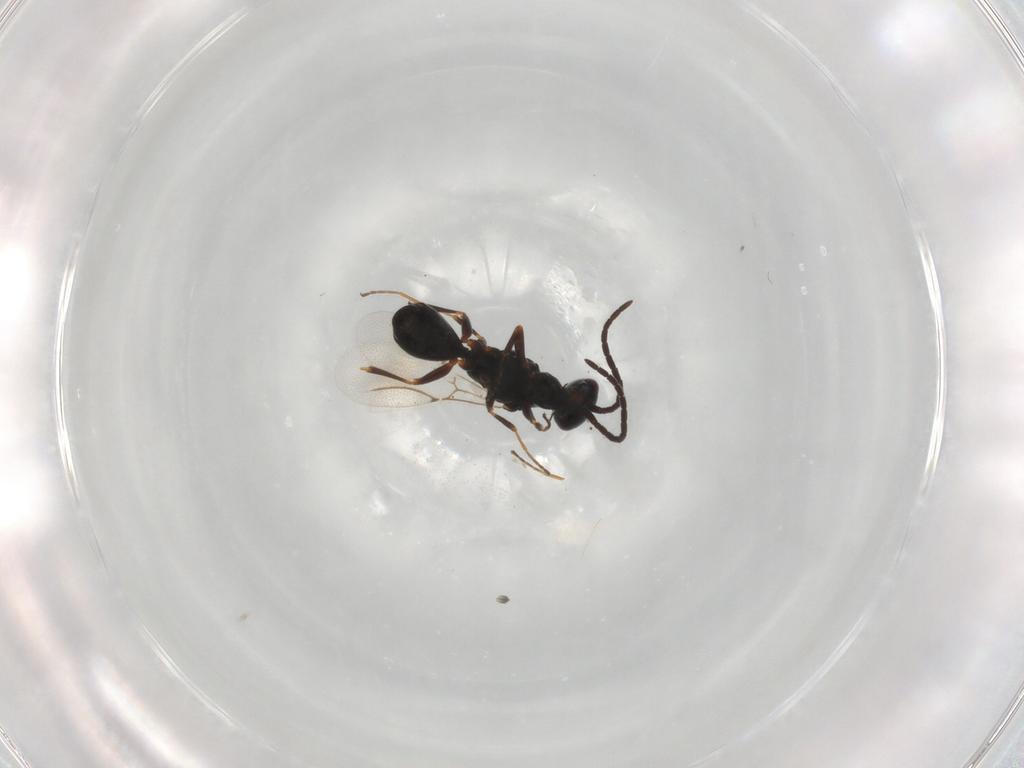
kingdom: Animalia
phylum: Arthropoda
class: Insecta
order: Hymenoptera
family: Bethylidae
